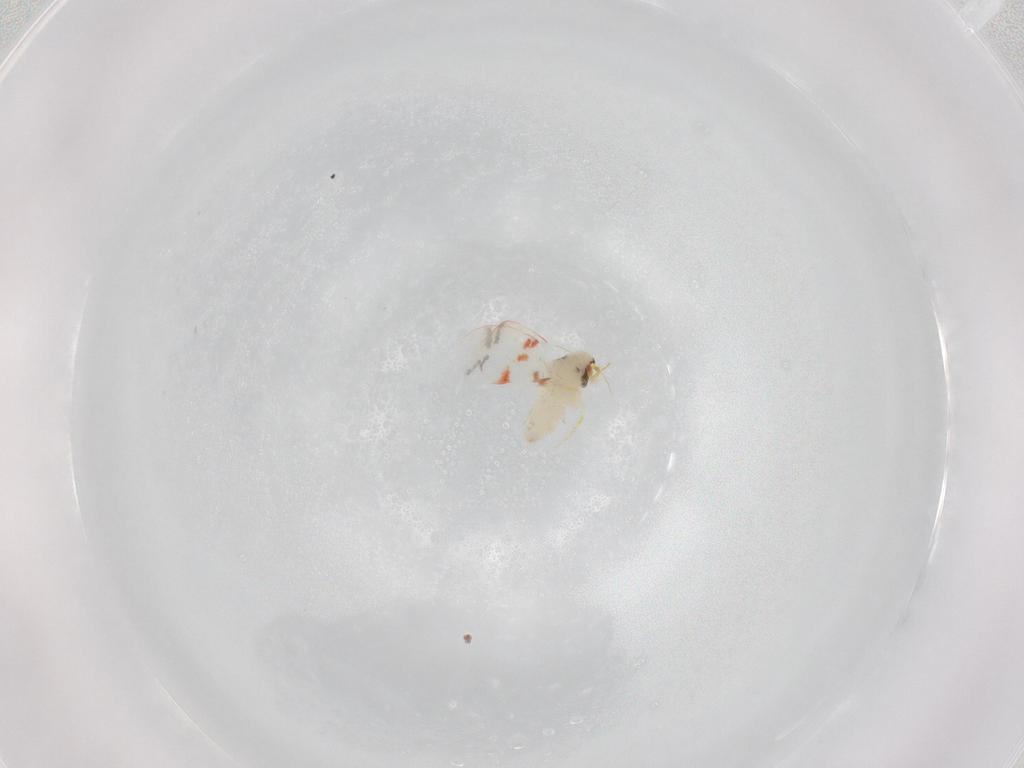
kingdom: Animalia
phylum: Arthropoda
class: Insecta
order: Hemiptera
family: Aleyrodidae
